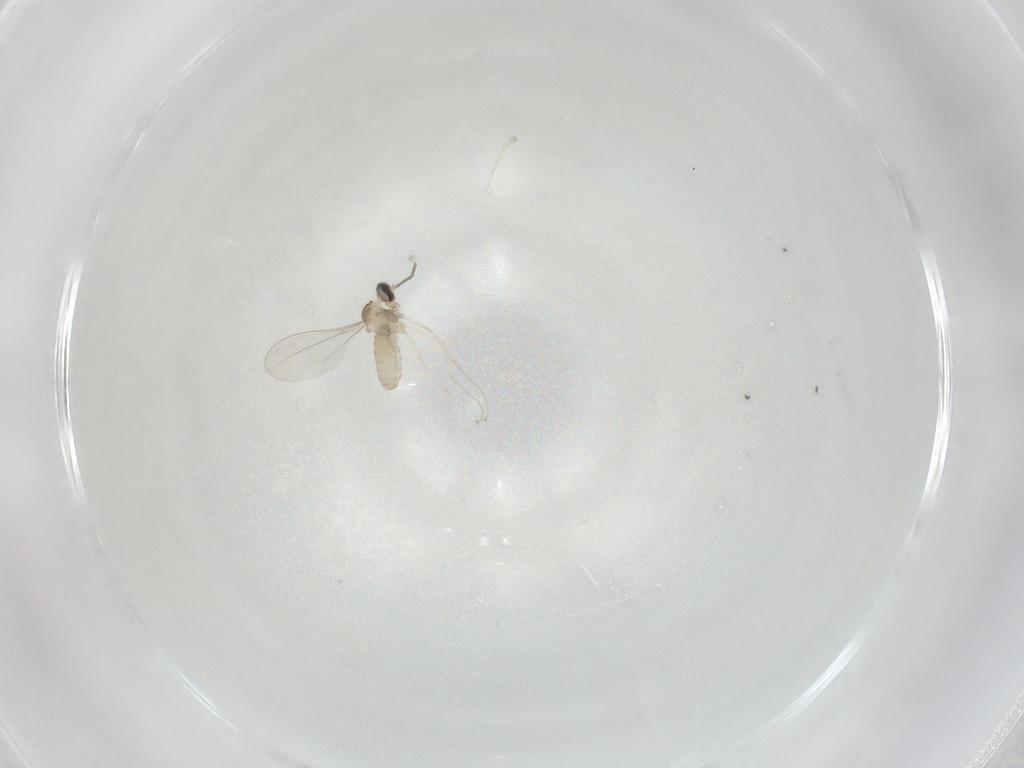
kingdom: Animalia
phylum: Arthropoda
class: Insecta
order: Diptera
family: Cecidomyiidae
